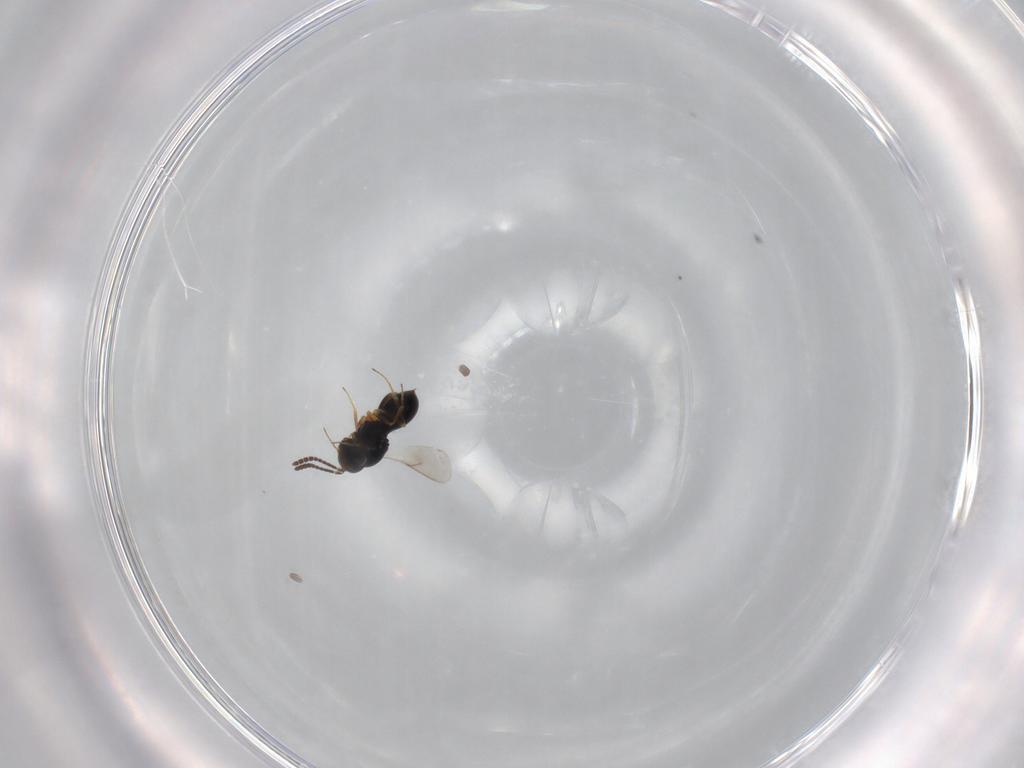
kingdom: Animalia
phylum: Arthropoda
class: Insecta
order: Hymenoptera
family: Scelionidae
